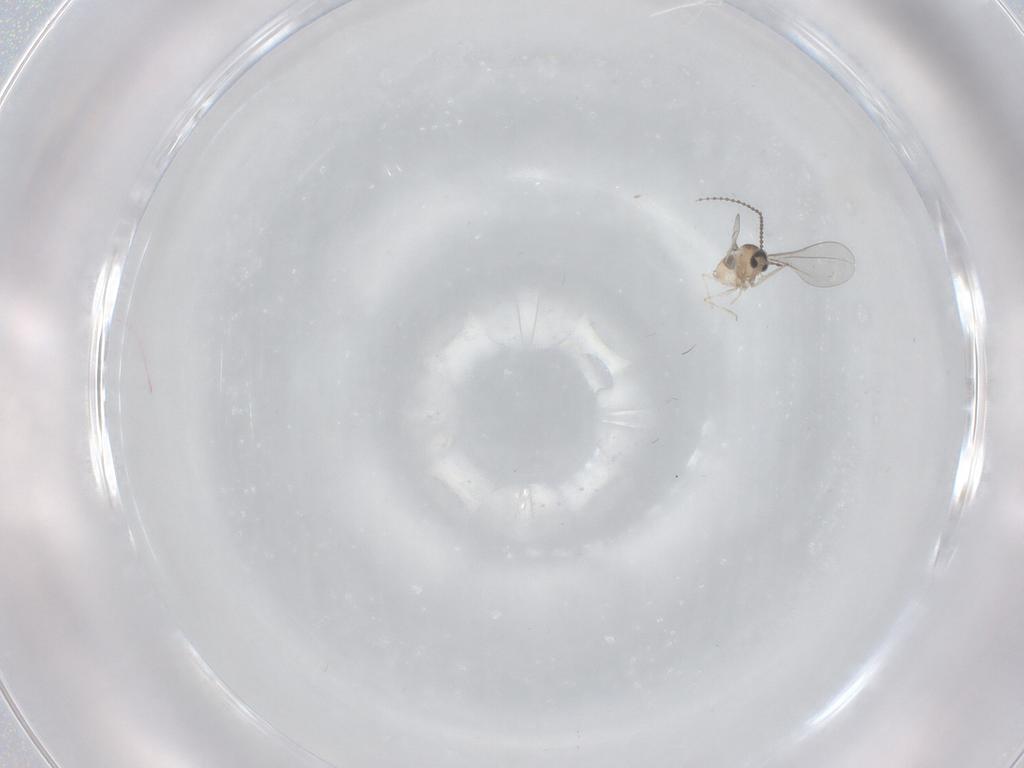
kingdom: Animalia
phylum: Arthropoda
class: Insecta
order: Diptera
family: Cecidomyiidae
